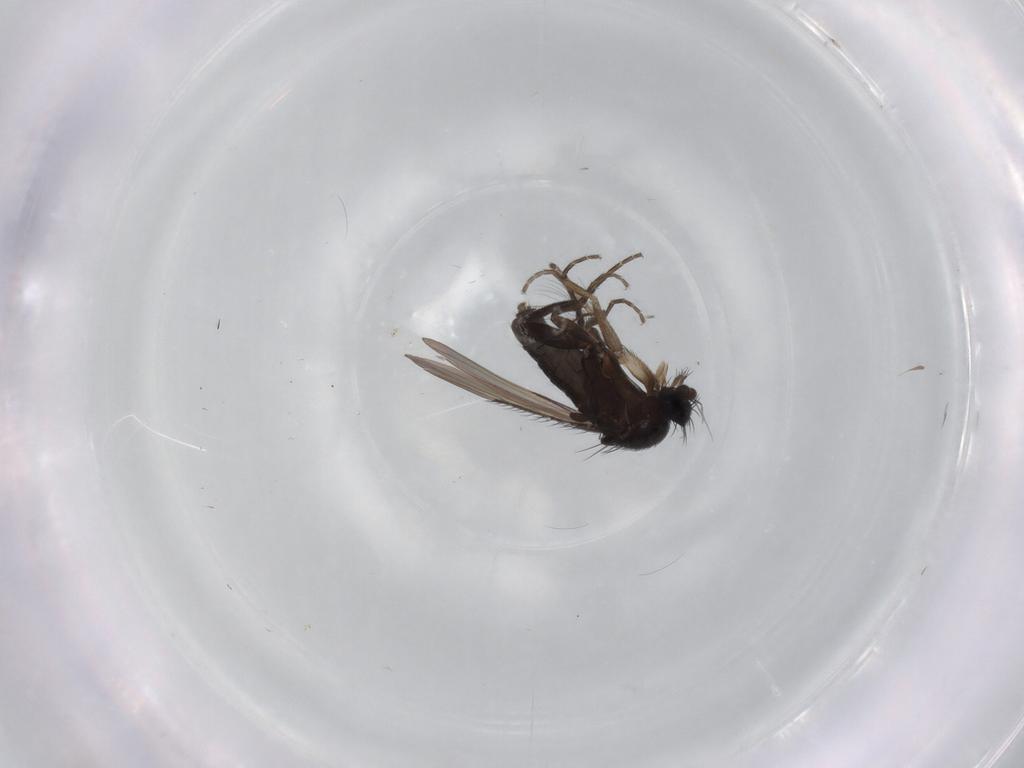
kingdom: Animalia
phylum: Arthropoda
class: Insecta
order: Diptera
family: Phoridae
